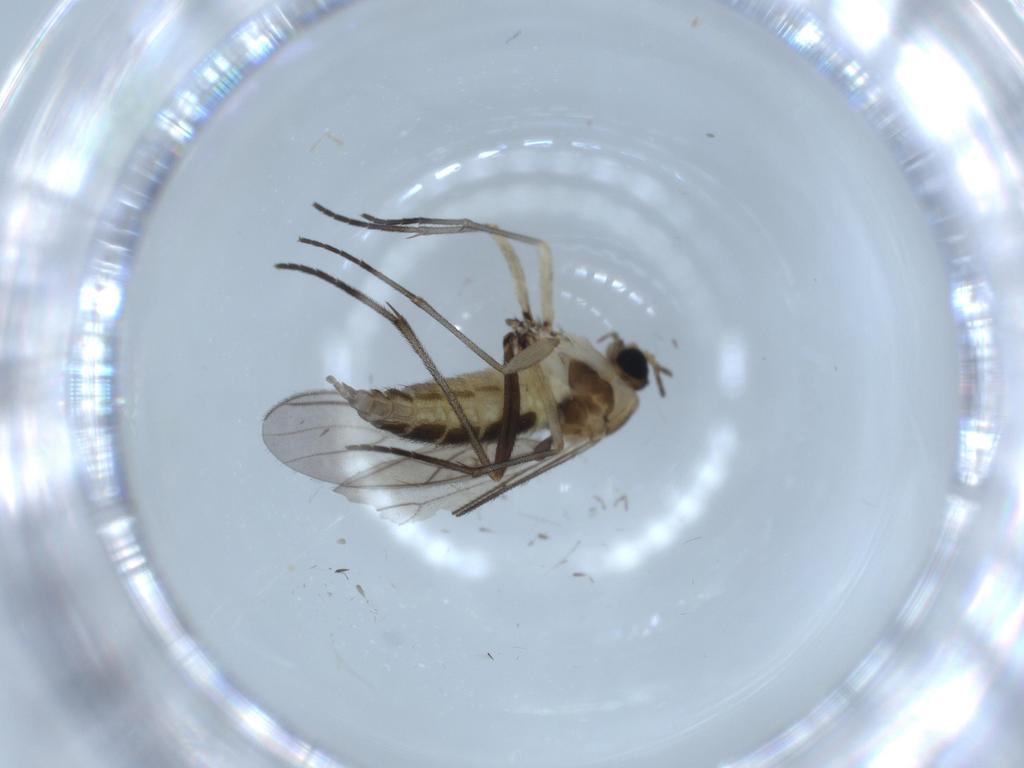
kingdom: Animalia
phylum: Arthropoda
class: Insecta
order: Diptera
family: Sciaridae
